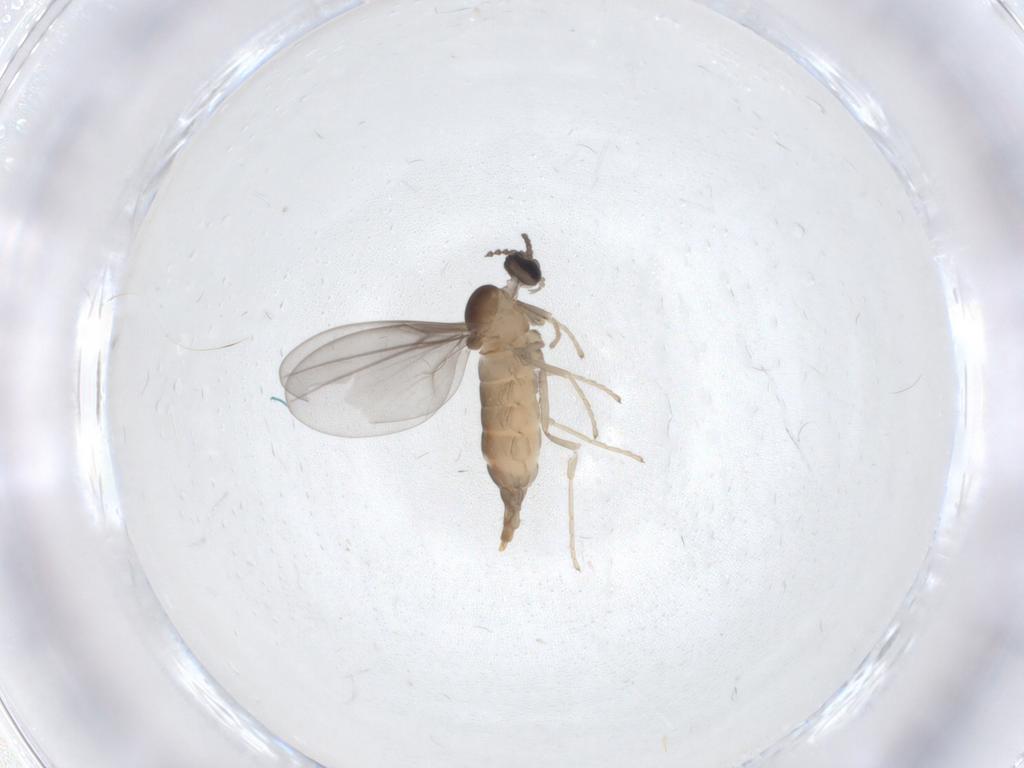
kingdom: Animalia
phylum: Arthropoda
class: Insecta
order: Diptera
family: Cecidomyiidae
